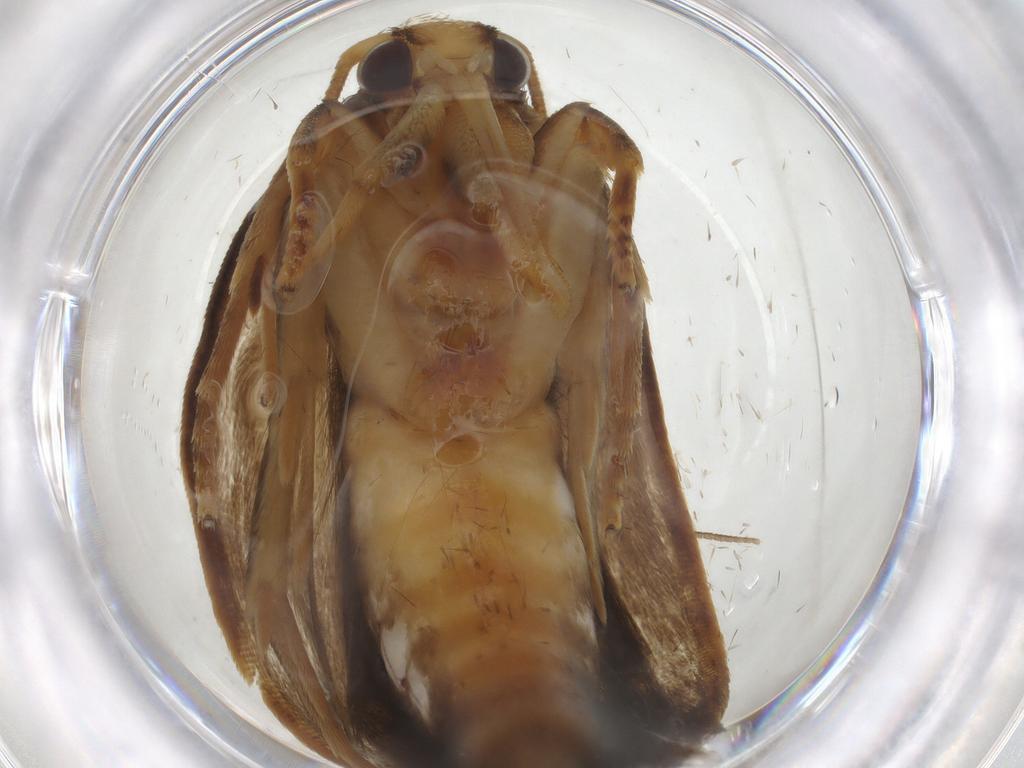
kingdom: Animalia
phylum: Arthropoda
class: Insecta
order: Lepidoptera
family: Depressariidae
